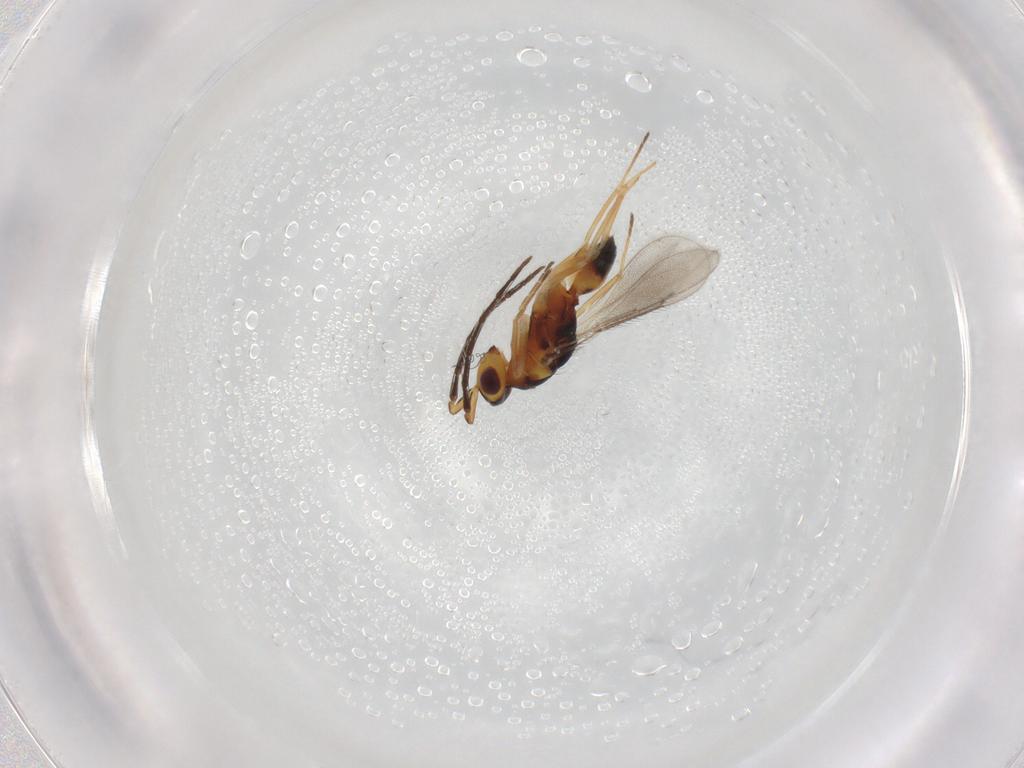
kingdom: Animalia
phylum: Arthropoda
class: Insecta
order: Hymenoptera
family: Eulophidae
